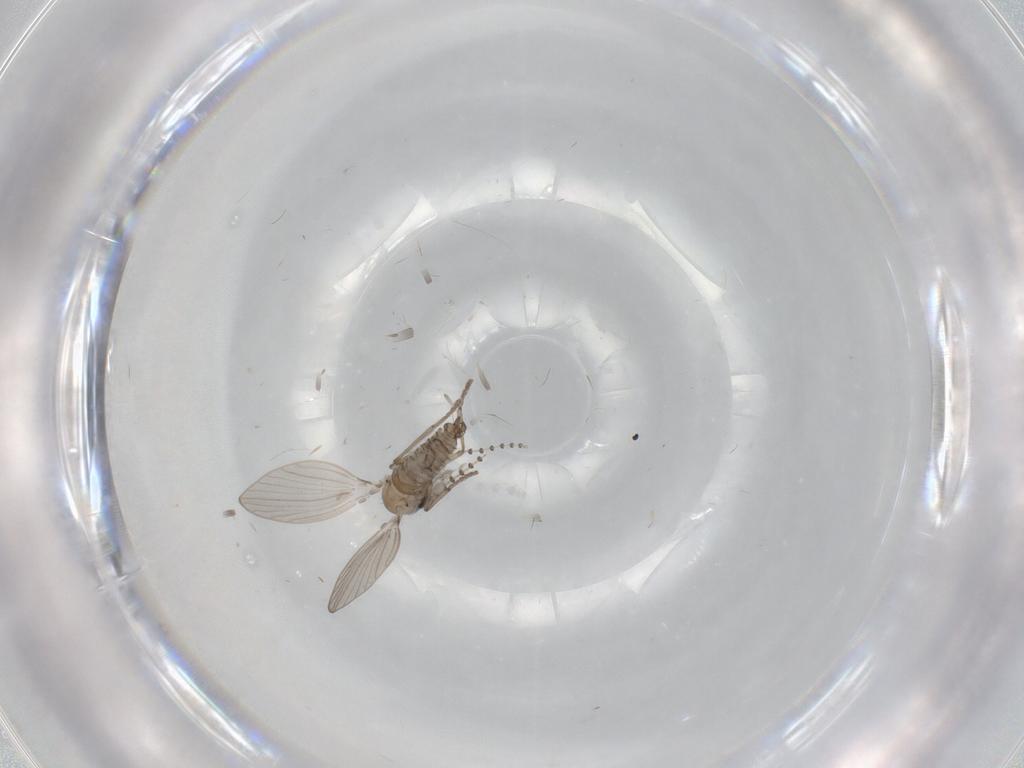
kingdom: Animalia
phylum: Arthropoda
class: Insecta
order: Diptera
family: Psychodidae
